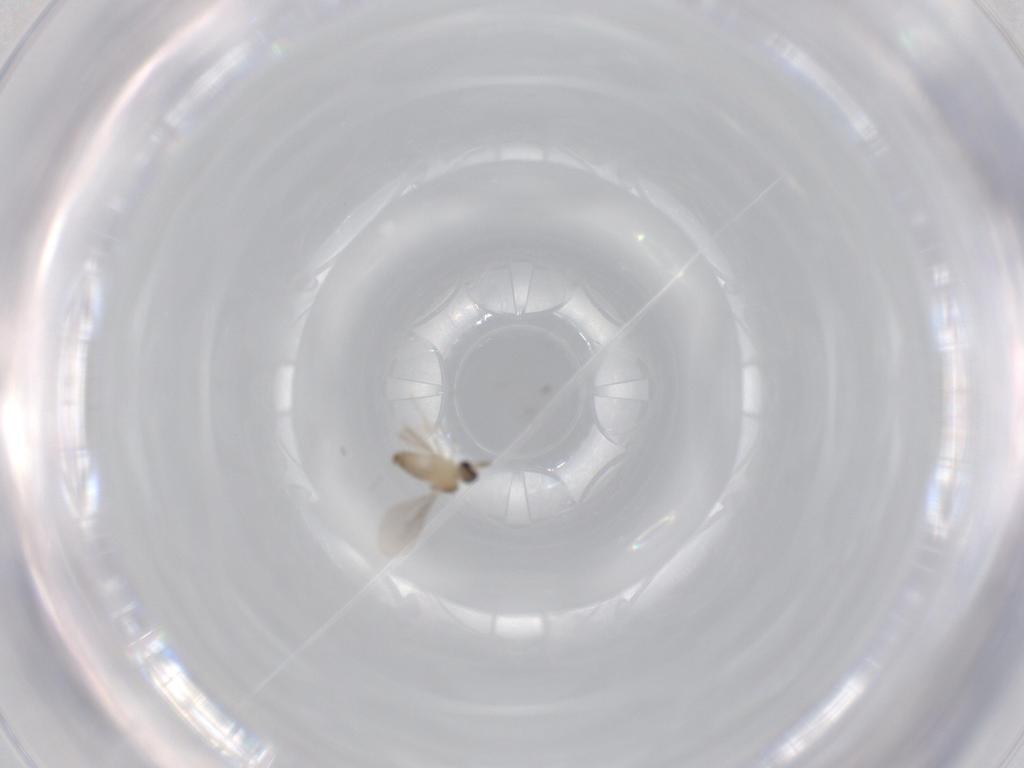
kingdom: Animalia
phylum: Arthropoda
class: Insecta
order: Diptera
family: Cecidomyiidae
